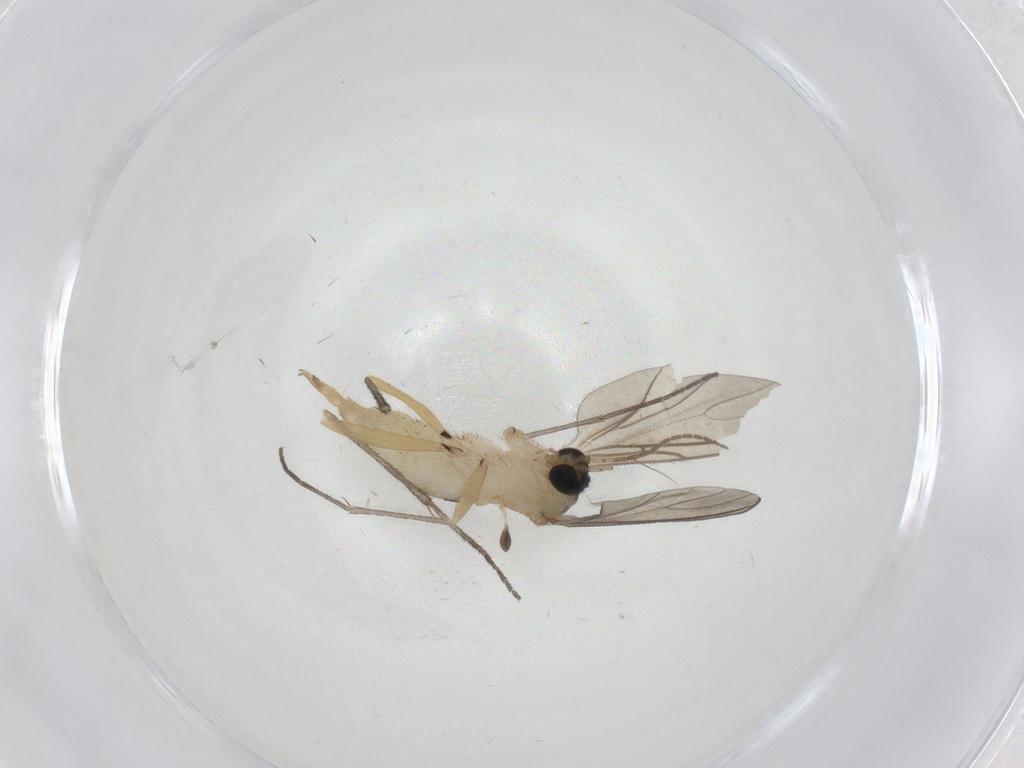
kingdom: Animalia
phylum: Arthropoda
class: Insecta
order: Diptera
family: Sciaridae
